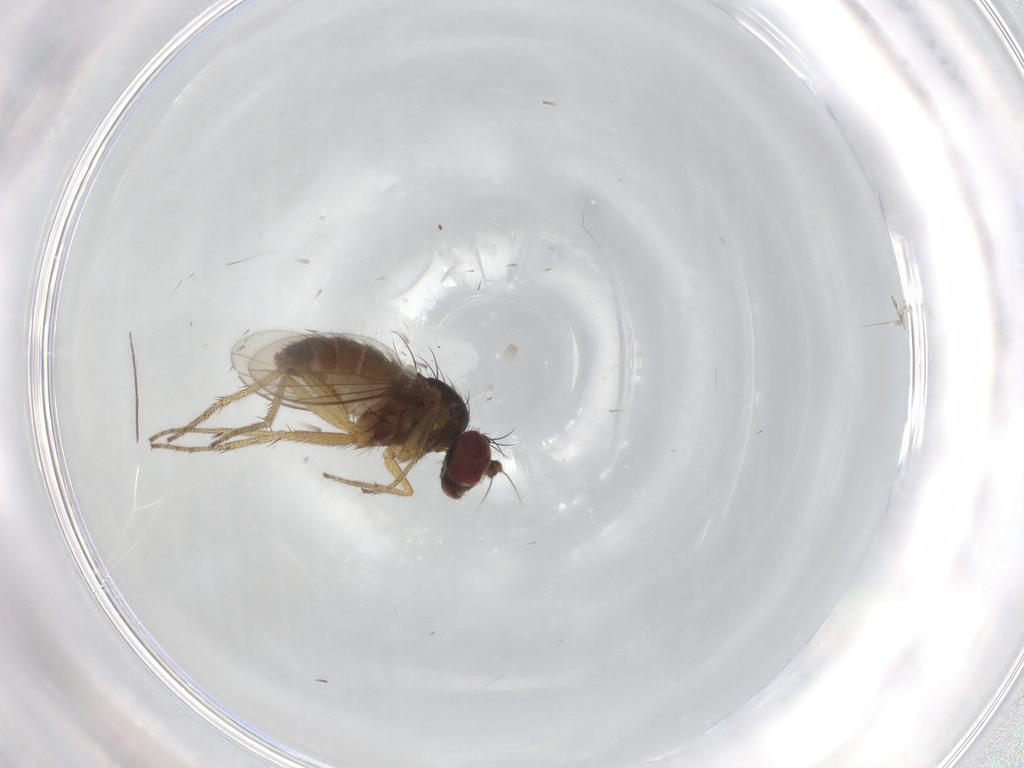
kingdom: Animalia
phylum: Arthropoda
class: Insecta
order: Diptera
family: Chironomidae
